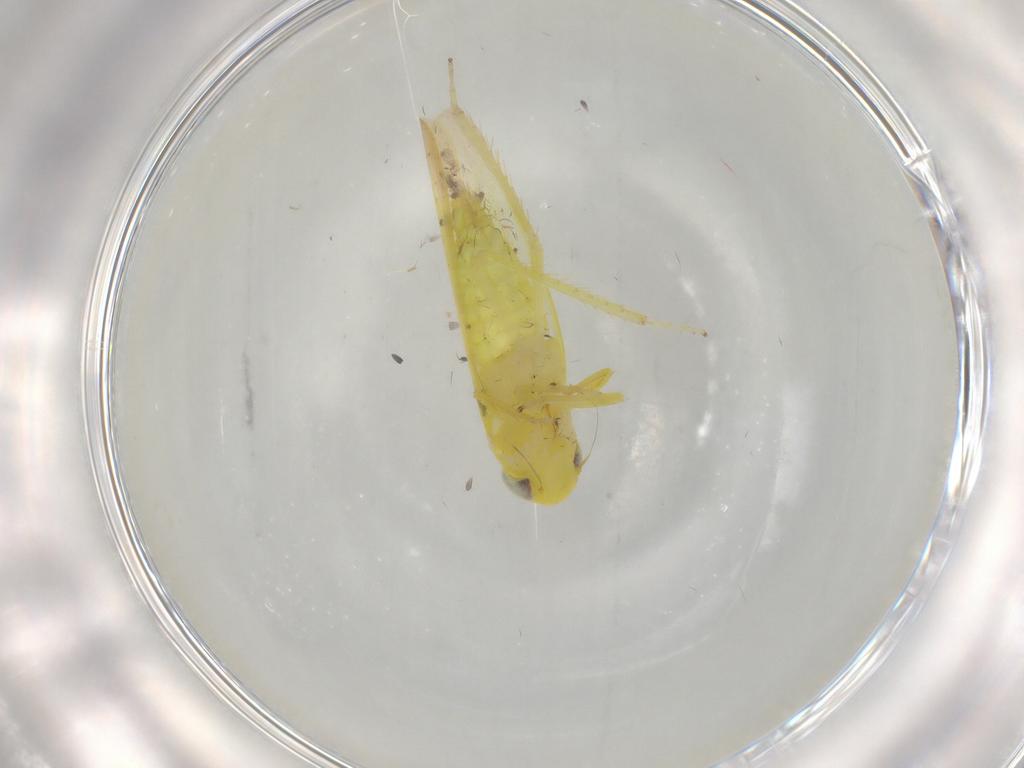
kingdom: Animalia
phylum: Arthropoda
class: Insecta
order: Hemiptera
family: Cicadellidae
